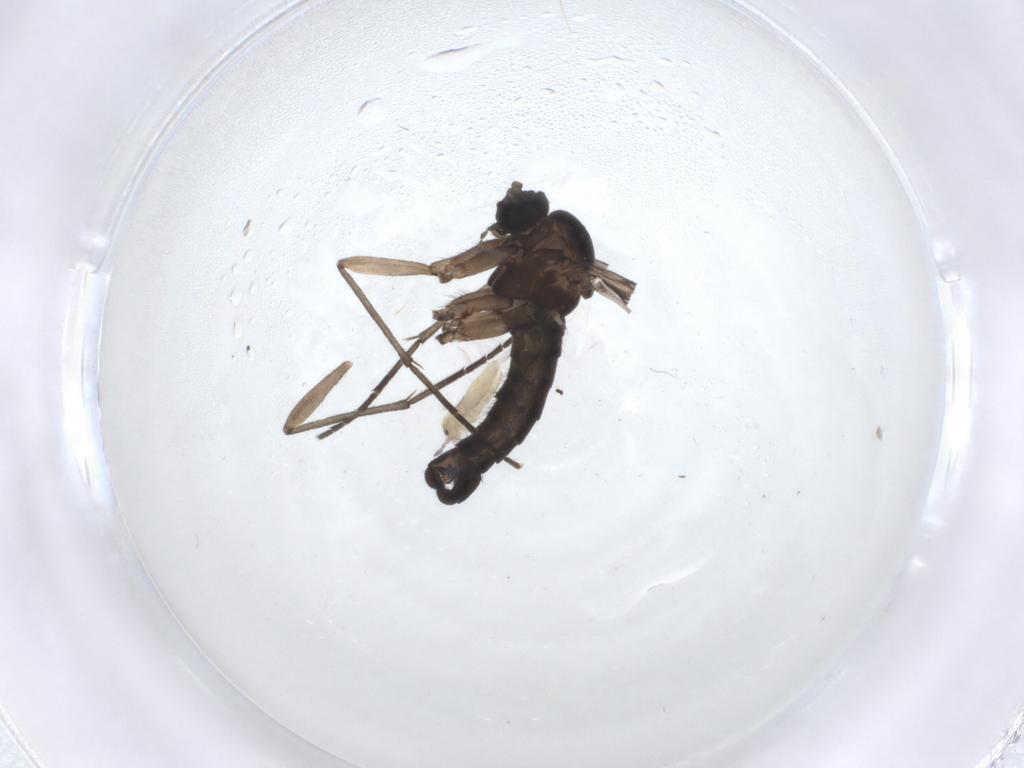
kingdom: Animalia
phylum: Arthropoda
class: Insecta
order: Diptera
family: Sciaridae
